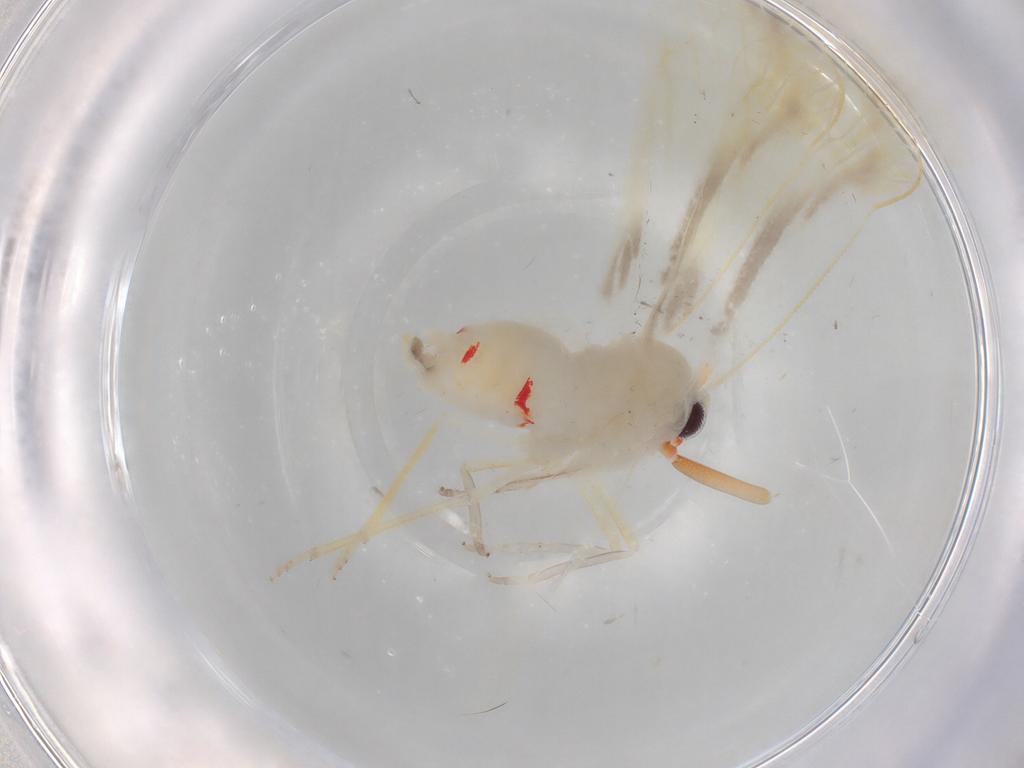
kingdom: Animalia
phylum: Arthropoda
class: Insecta
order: Hemiptera
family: Derbidae
